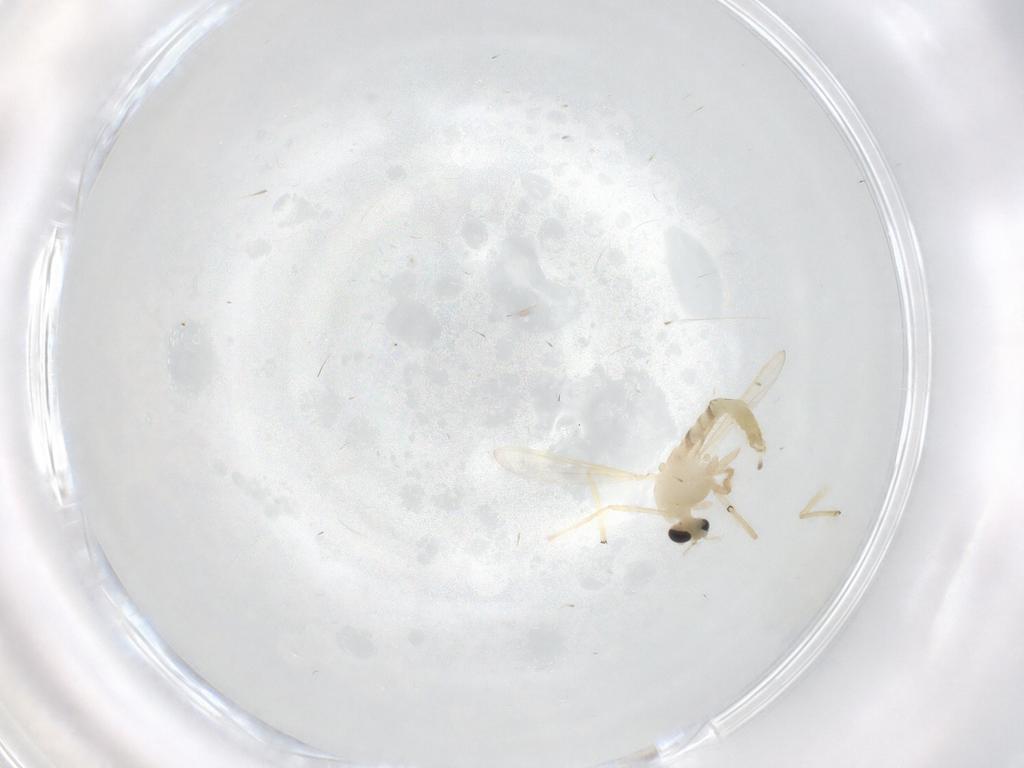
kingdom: Animalia
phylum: Arthropoda
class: Insecta
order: Diptera
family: Chironomidae
